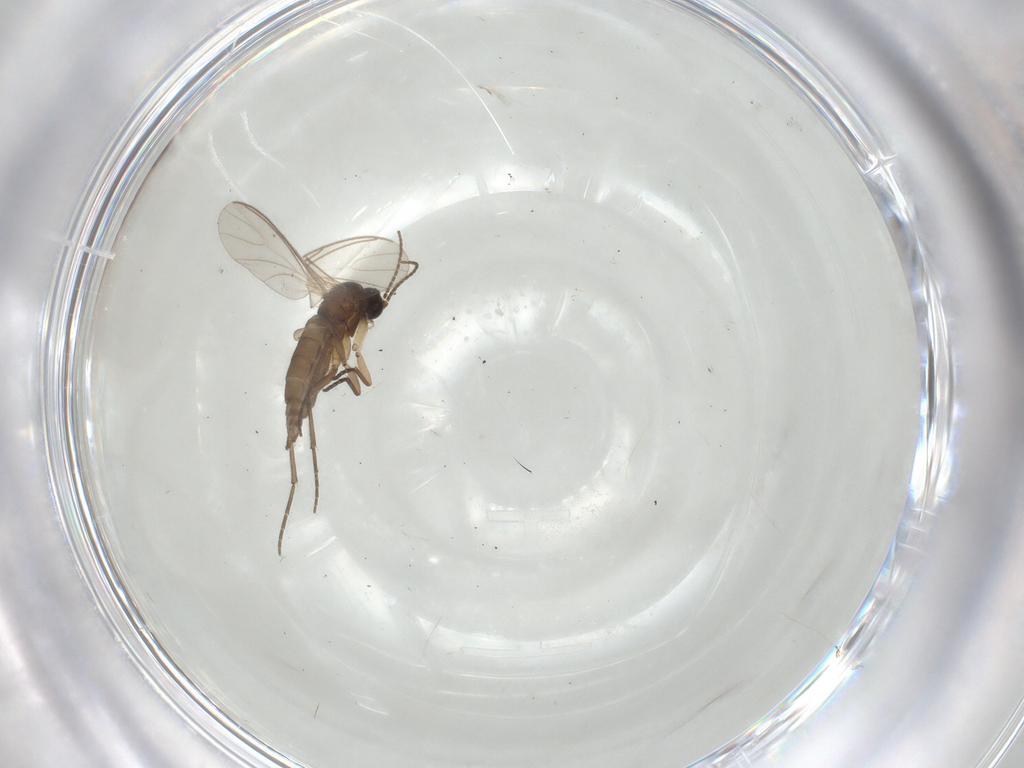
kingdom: Animalia
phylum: Arthropoda
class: Insecta
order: Diptera
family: Sciaridae
